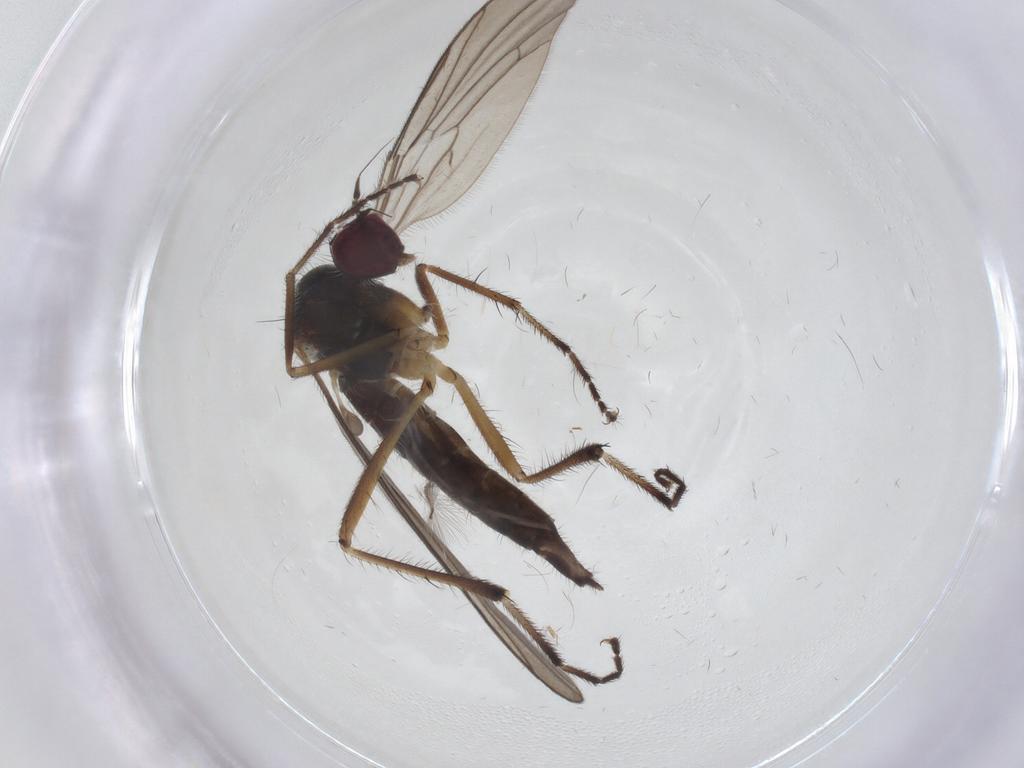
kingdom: Animalia
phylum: Arthropoda
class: Insecta
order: Diptera
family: Hybotidae
